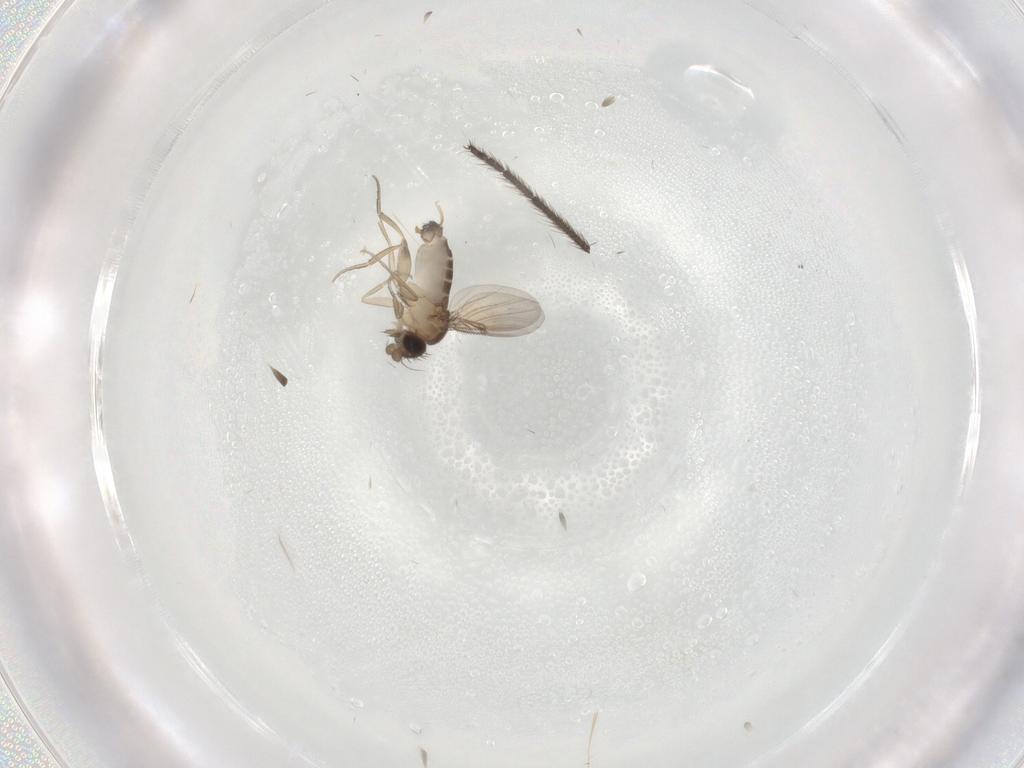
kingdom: Animalia
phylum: Arthropoda
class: Insecta
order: Diptera
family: Limoniidae
